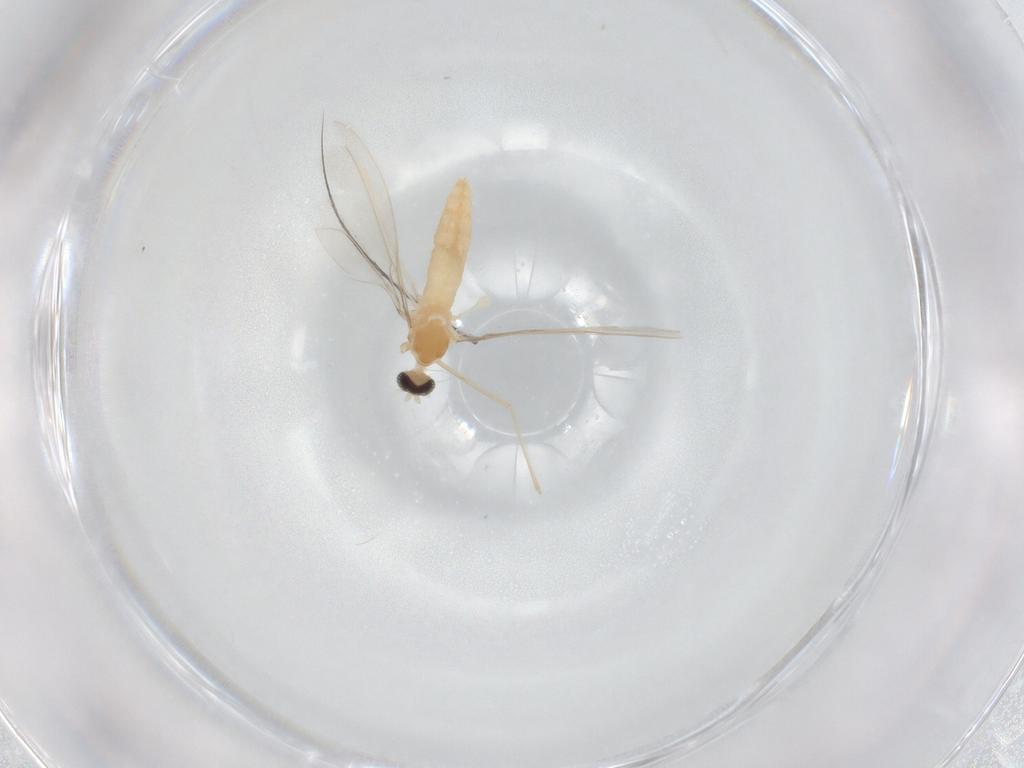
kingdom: Animalia
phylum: Arthropoda
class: Insecta
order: Diptera
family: Cecidomyiidae
